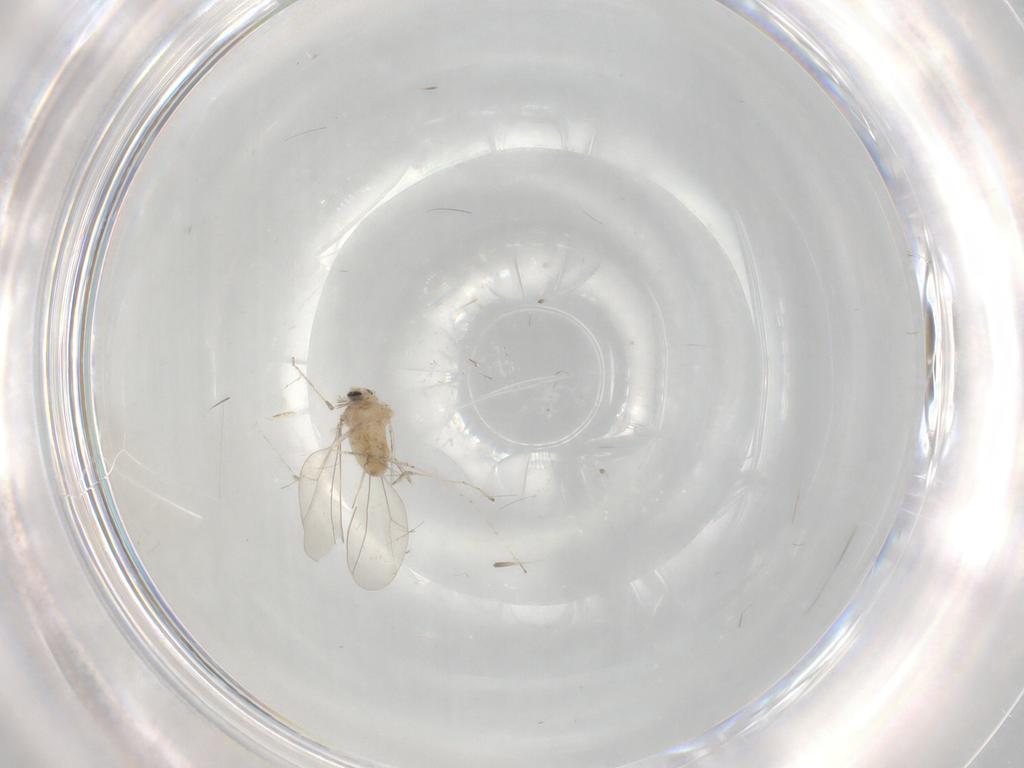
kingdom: Animalia
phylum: Arthropoda
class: Insecta
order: Diptera
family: Cecidomyiidae
